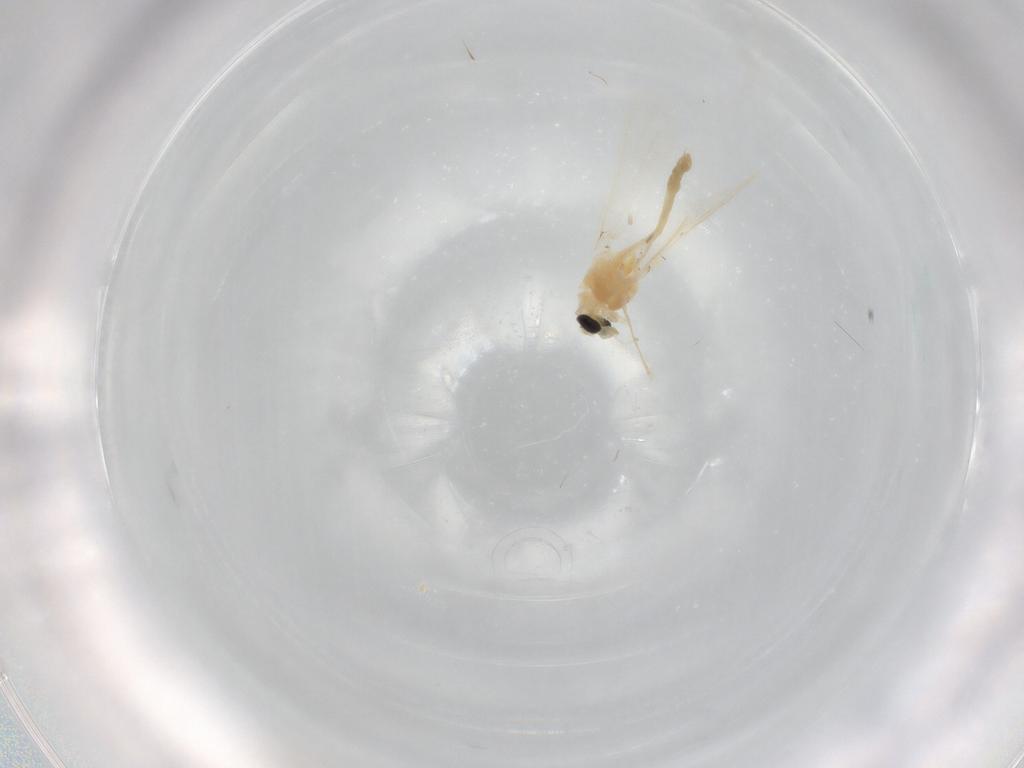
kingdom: Animalia
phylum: Arthropoda
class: Insecta
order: Diptera
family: Chironomidae
